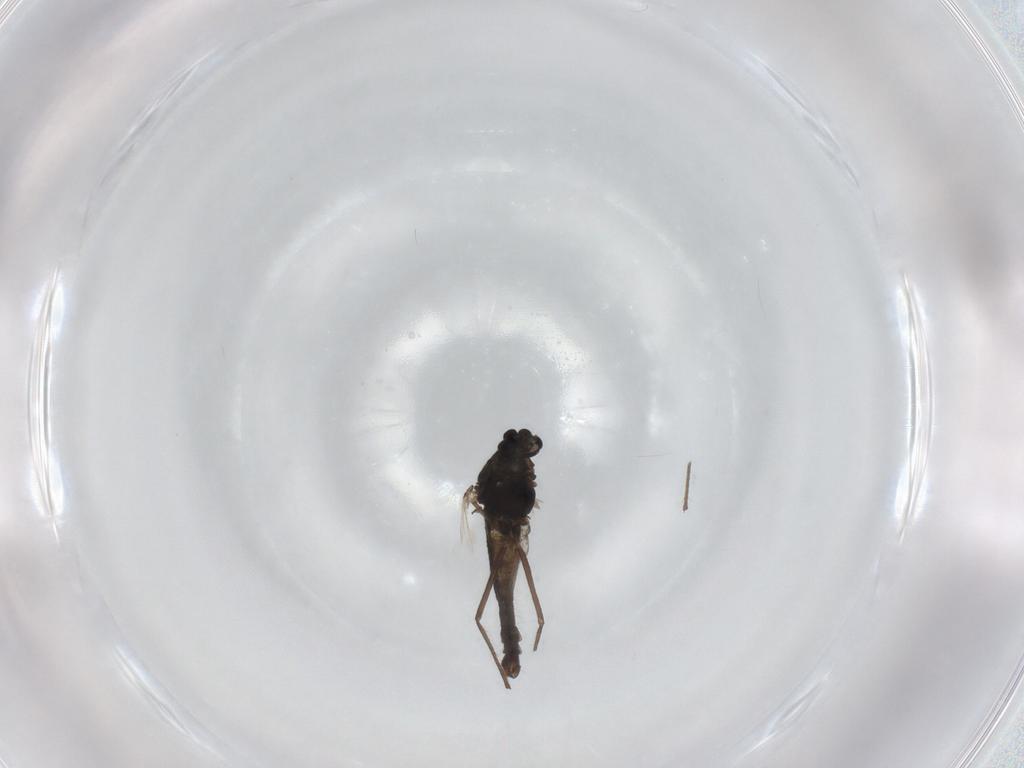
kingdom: Animalia
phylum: Arthropoda
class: Insecta
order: Diptera
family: Chironomidae
